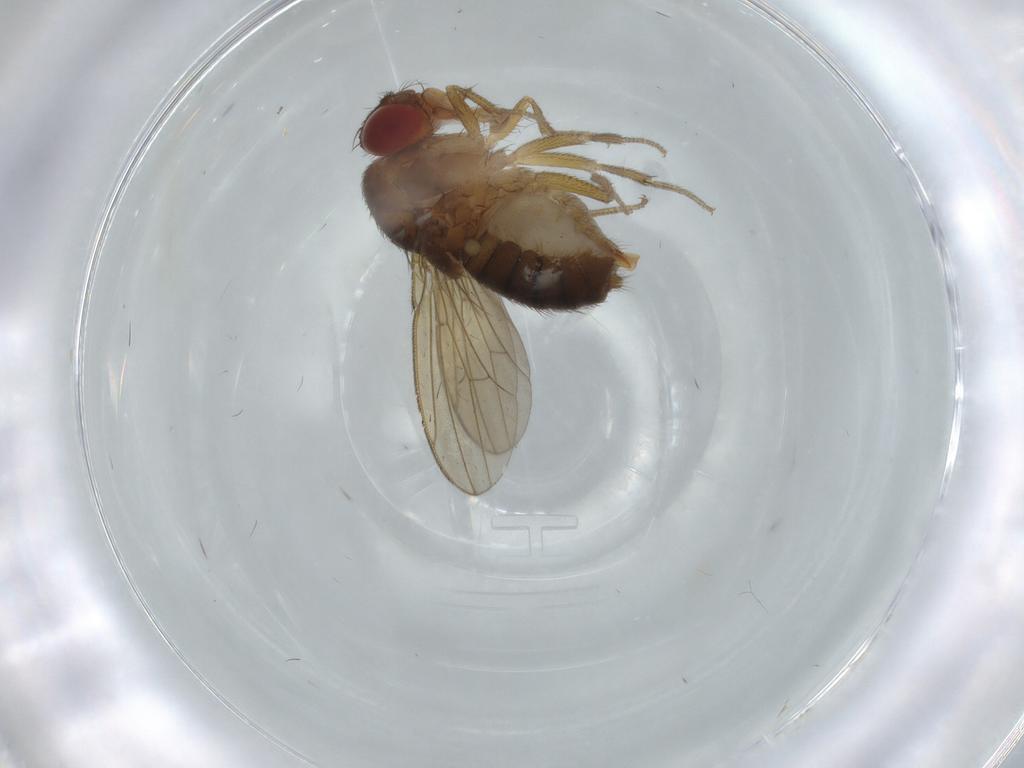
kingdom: Animalia
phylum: Arthropoda
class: Insecta
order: Diptera
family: Drosophilidae
